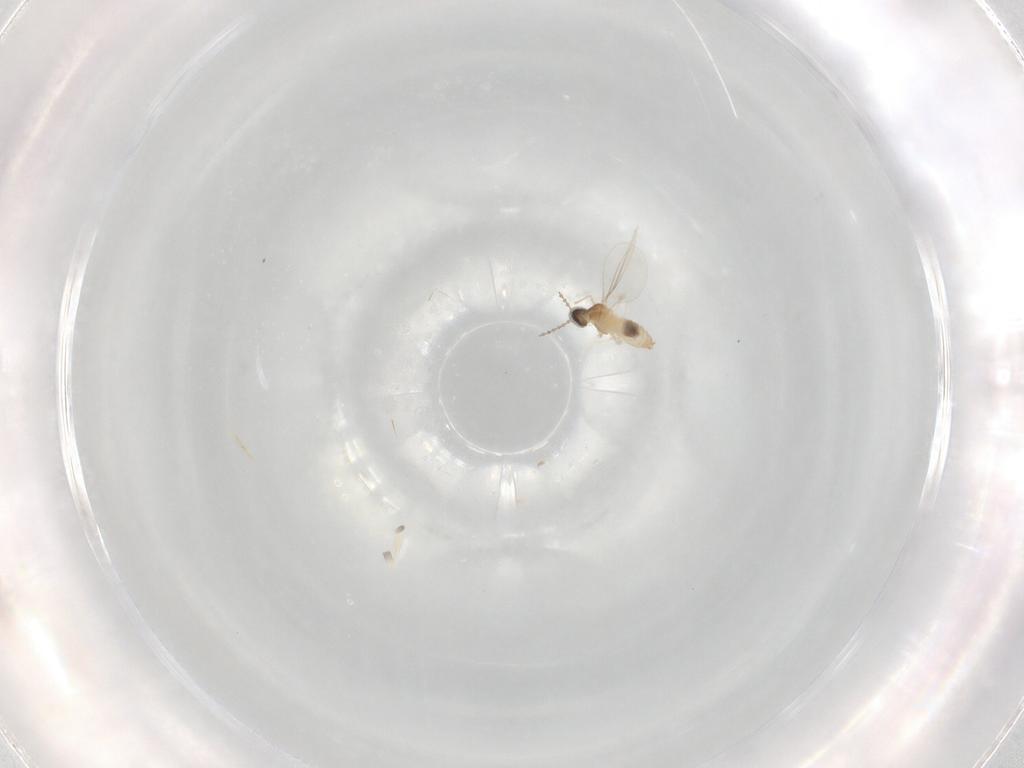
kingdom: Animalia
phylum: Arthropoda
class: Insecta
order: Diptera
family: Cecidomyiidae
